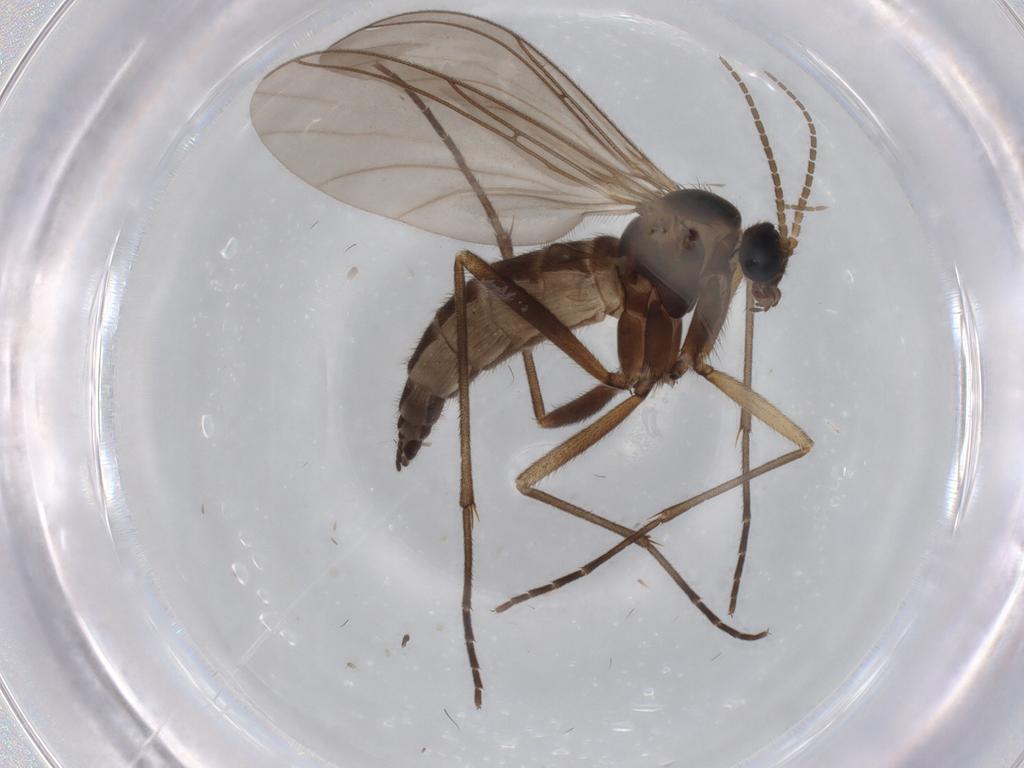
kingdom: Animalia
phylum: Arthropoda
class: Insecta
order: Diptera
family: Sciaridae
